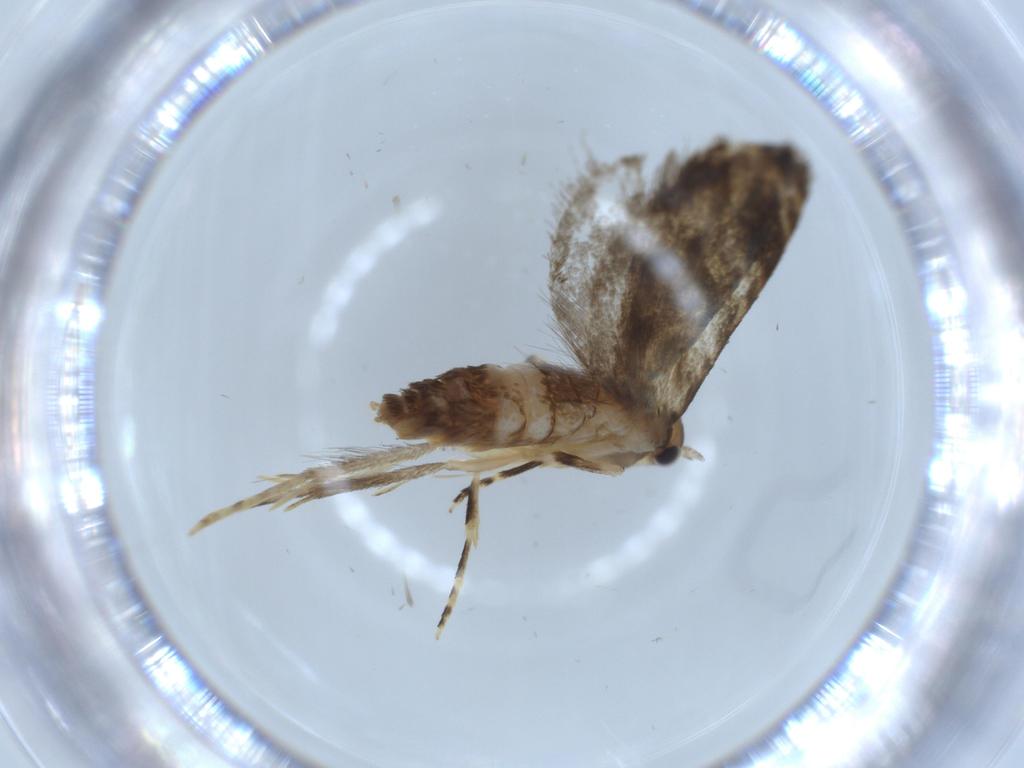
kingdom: Animalia
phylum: Arthropoda
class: Insecta
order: Lepidoptera
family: Tineidae
